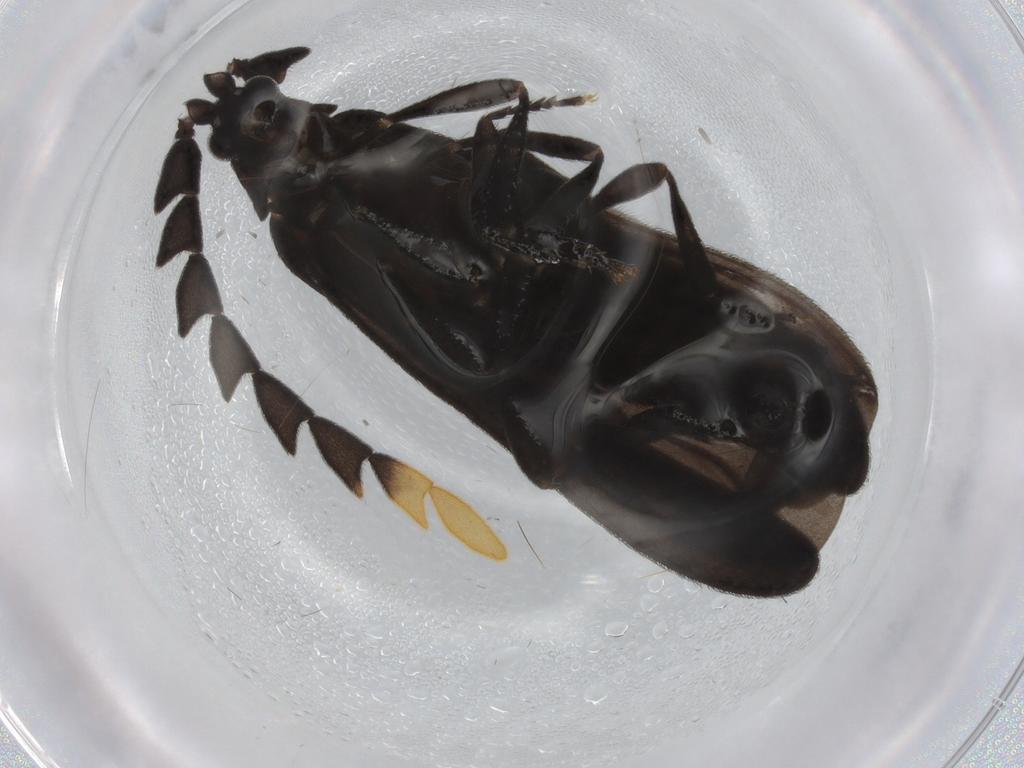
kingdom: Animalia
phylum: Arthropoda
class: Insecta
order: Coleoptera
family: Lycidae
